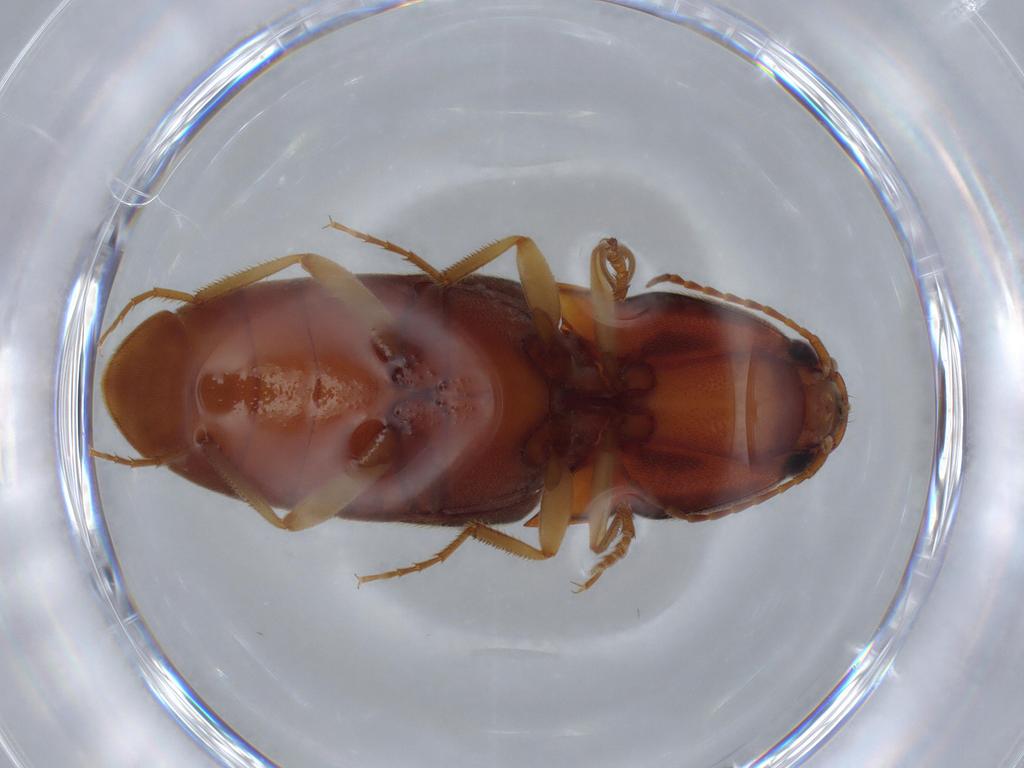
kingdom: Animalia
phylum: Arthropoda
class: Insecta
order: Coleoptera
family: Elateridae
